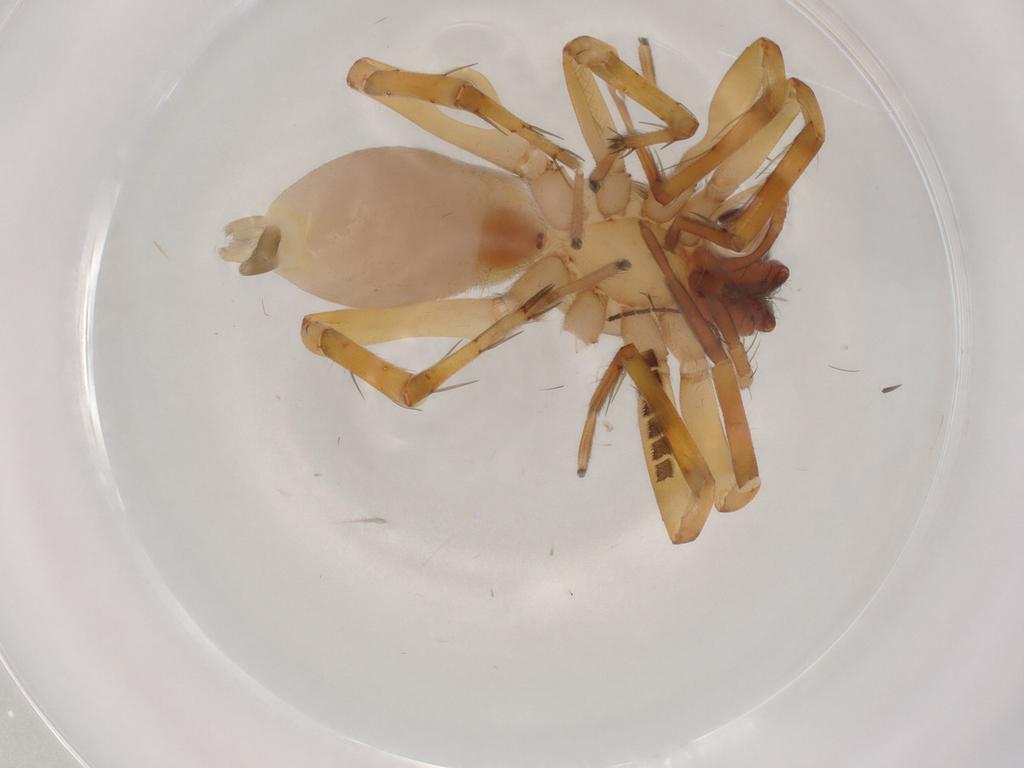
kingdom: Animalia
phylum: Arthropoda
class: Arachnida
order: Araneae
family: Clubionidae
